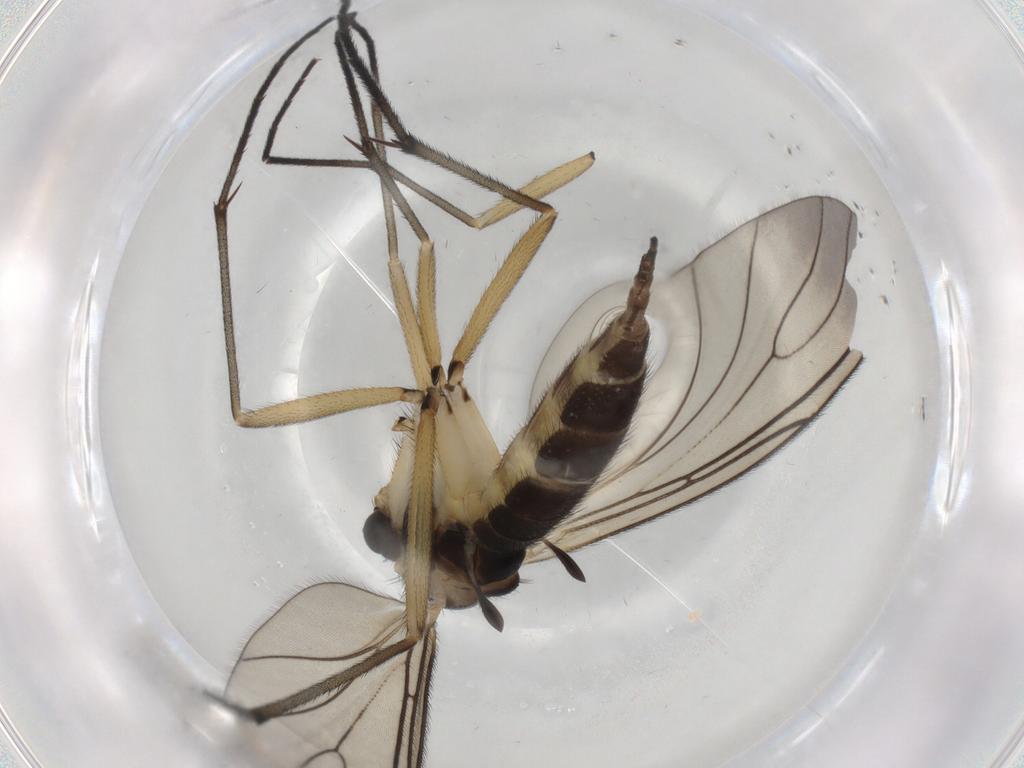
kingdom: Animalia
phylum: Arthropoda
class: Insecta
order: Diptera
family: Sciaridae
